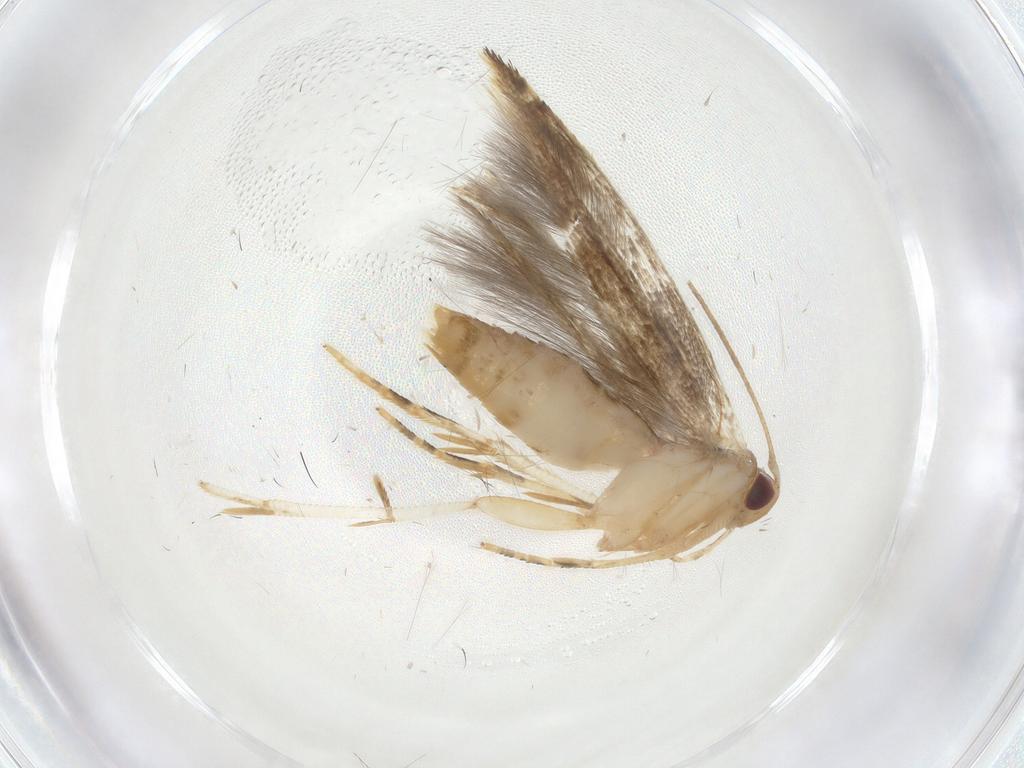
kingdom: Animalia
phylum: Arthropoda
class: Insecta
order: Lepidoptera
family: Momphidae
